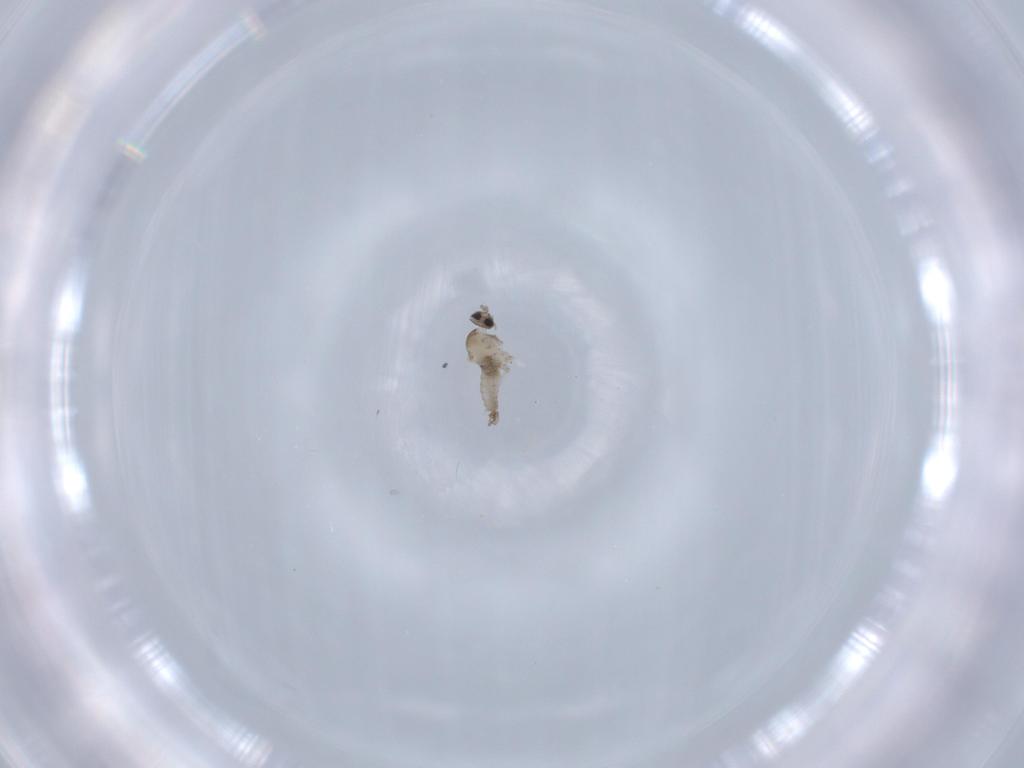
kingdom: Animalia
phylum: Arthropoda
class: Insecta
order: Diptera
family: Cecidomyiidae
